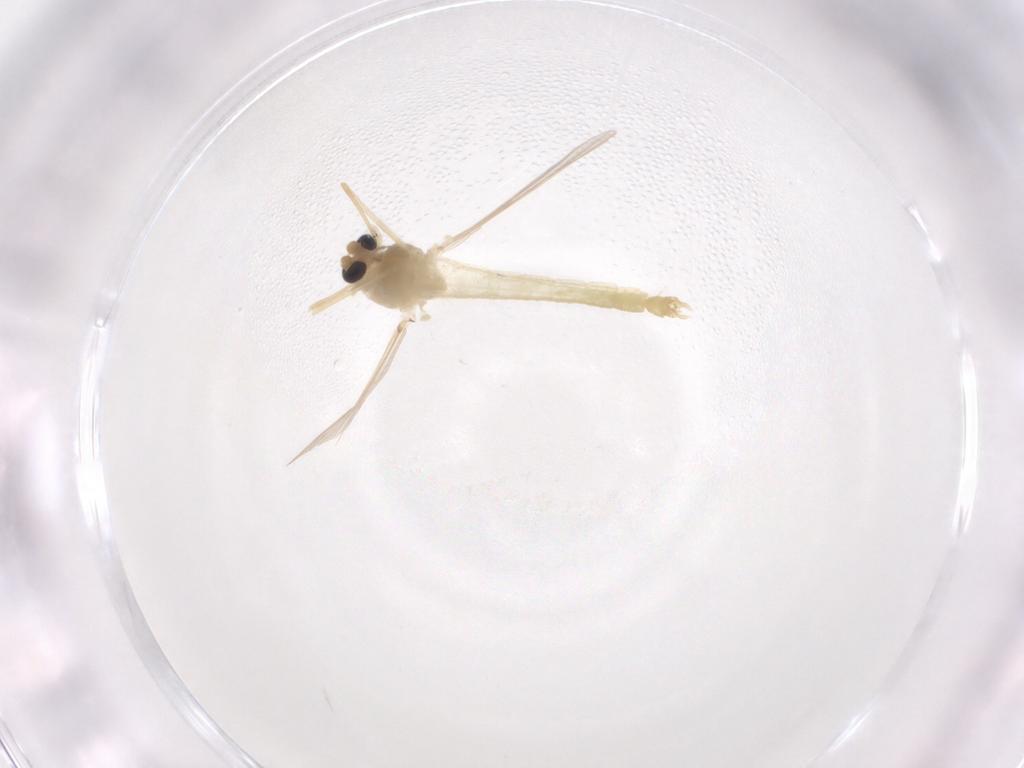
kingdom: Animalia
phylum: Arthropoda
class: Insecta
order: Diptera
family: Chironomidae
